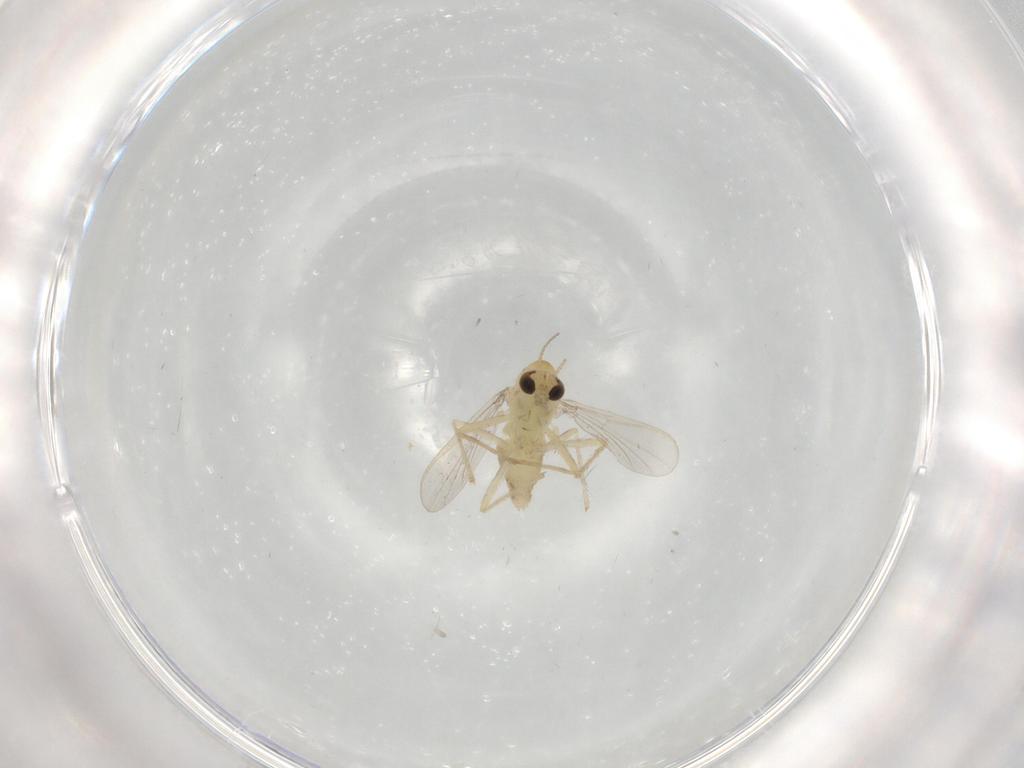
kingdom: Animalia
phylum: Arthropoda
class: Insecta
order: Diptera
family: Chironomidae
